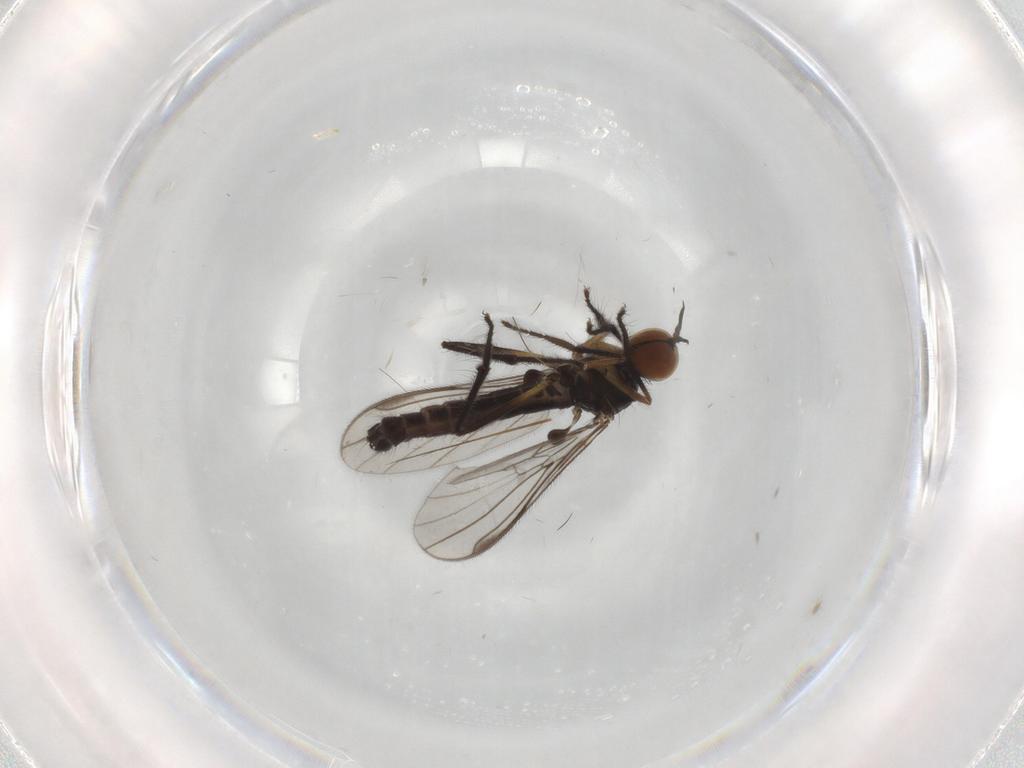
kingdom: Animalia
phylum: Arthropoda
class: Insecta
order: Diptera
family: Empididae
